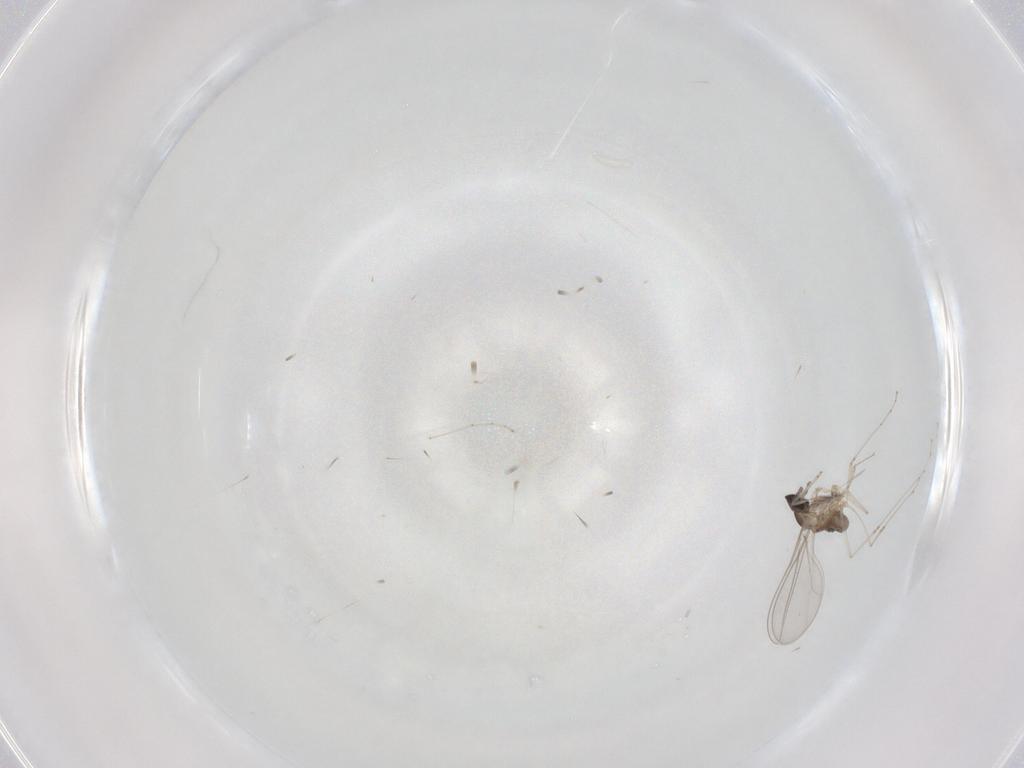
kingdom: Animalia
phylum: Arthropoda
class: Insecta
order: Diptera
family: Cecidomyiidae
